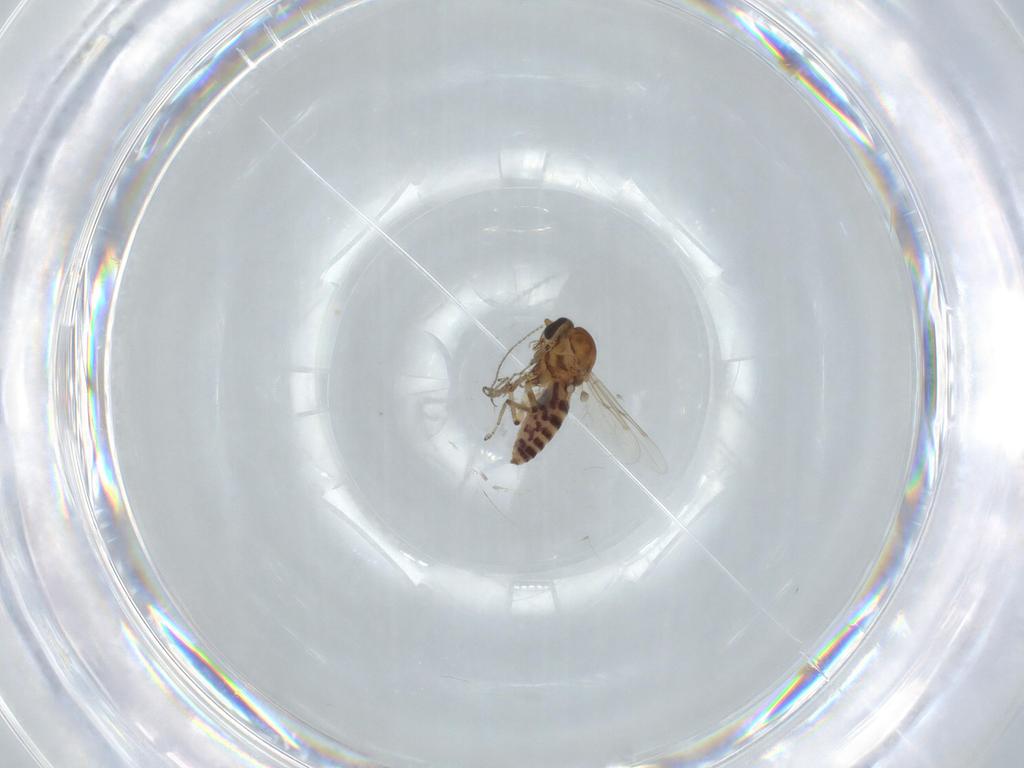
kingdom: Animalia
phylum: Arthropoda
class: Insecta
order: Diptera
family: Ceratopogonidae
